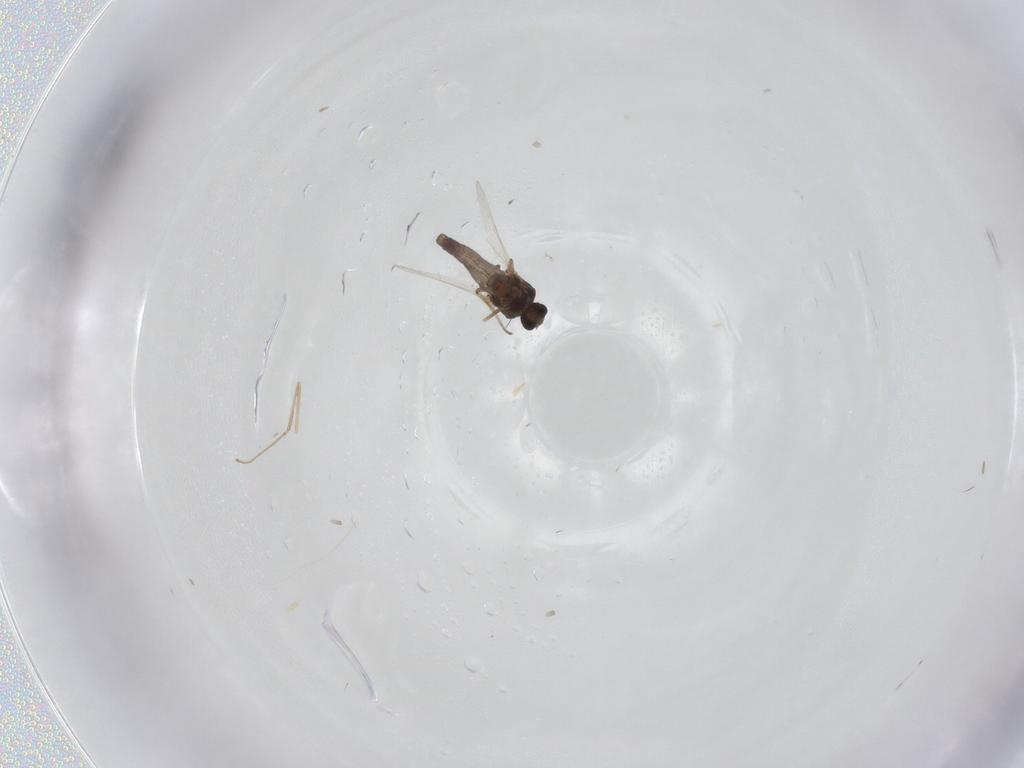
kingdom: Animalia
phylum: Arthropoda
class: Insecta
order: Diptera
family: Ceratopogonidae
